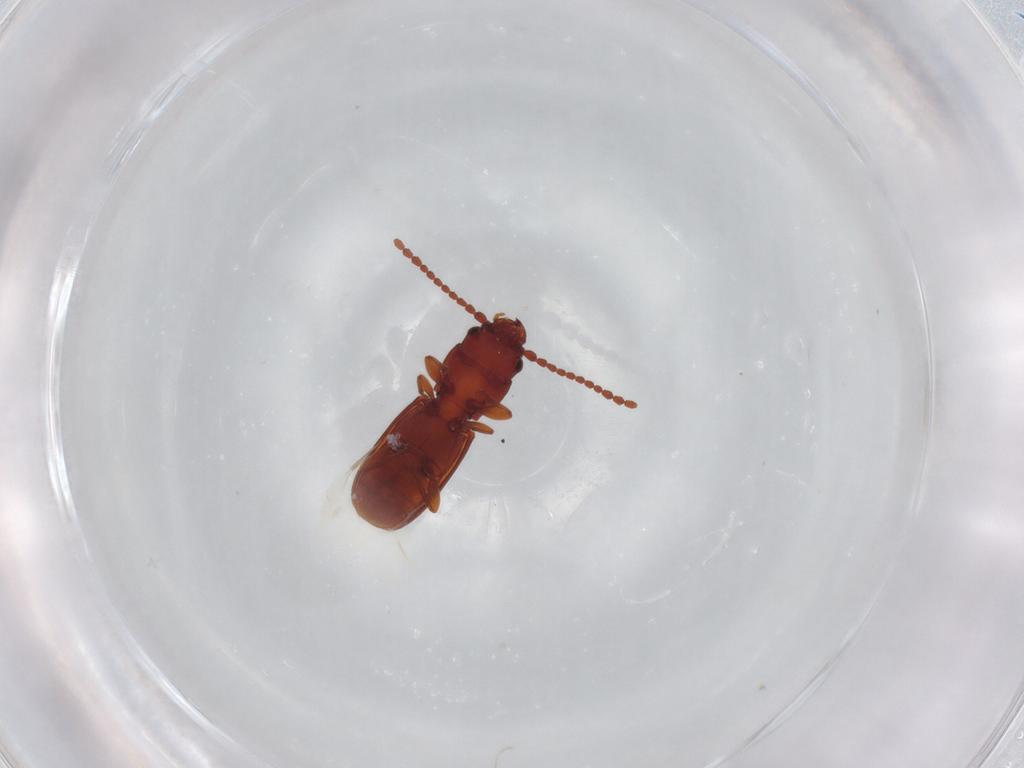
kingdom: Animalia
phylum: Arthropoda
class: Insecta
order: Coleoptera
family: Laemophloeidae
